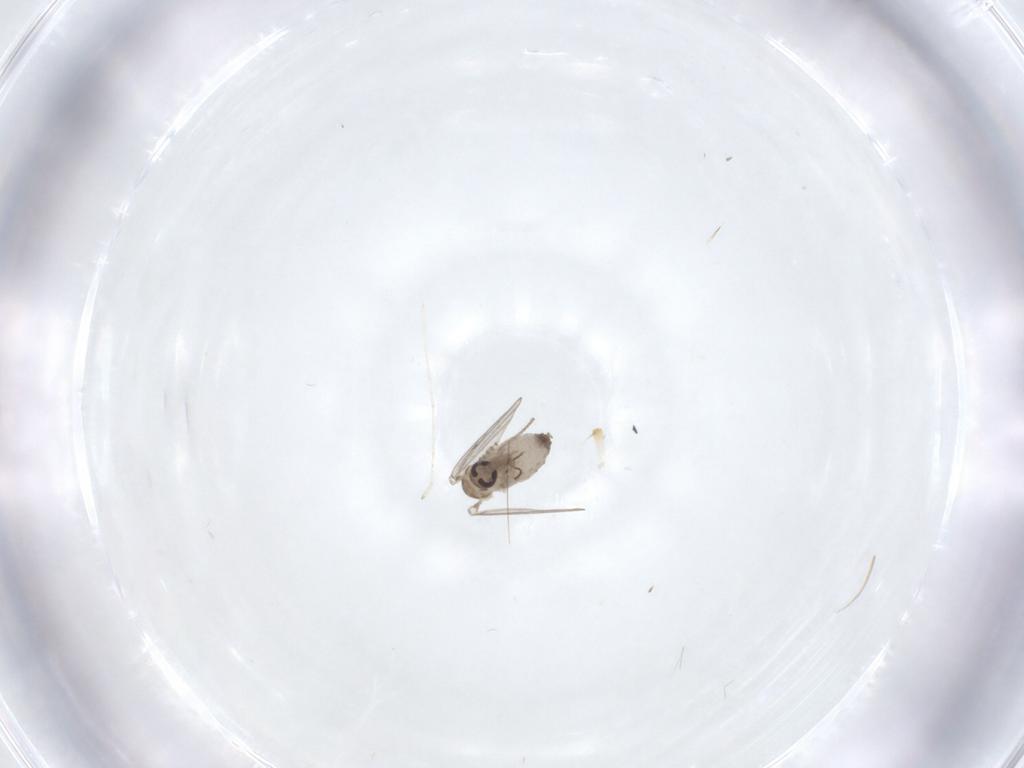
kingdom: Animalia
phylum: Arthropoda
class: Insecta
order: Diptera
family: Psychodidae
